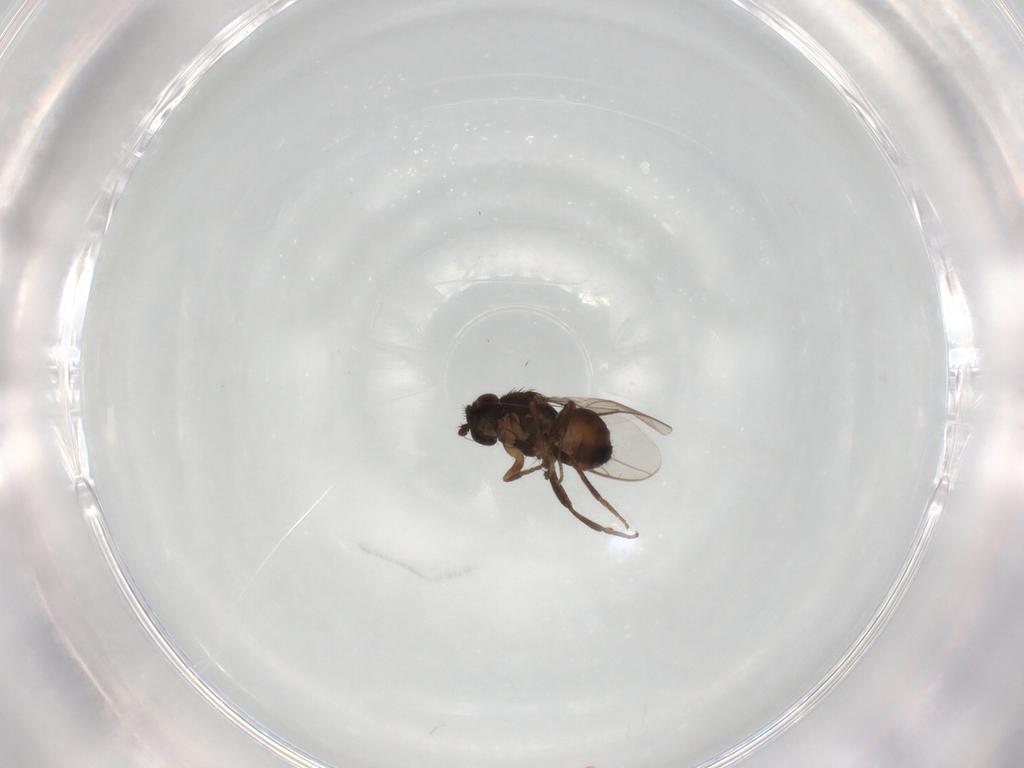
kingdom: Animalia
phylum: Arthropoda
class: Insecta
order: Diptera
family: Sphaeroceridae
